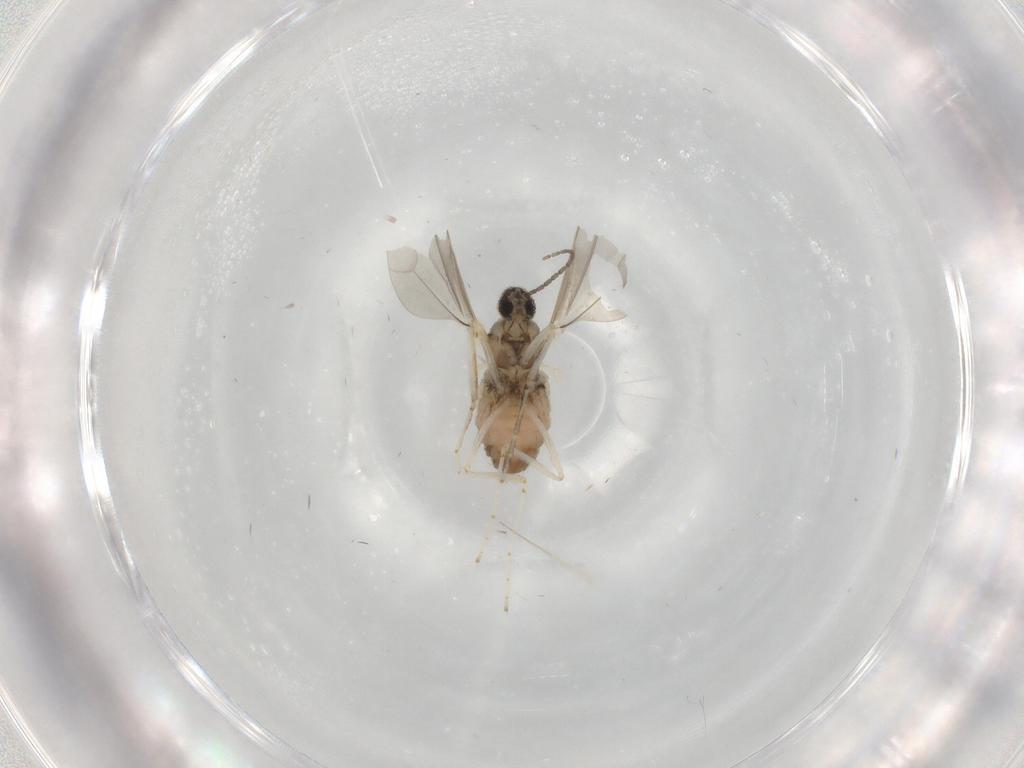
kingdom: Animalia
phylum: Arthropoda
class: Insecta
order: Diptera
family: Cecidomyiidae
